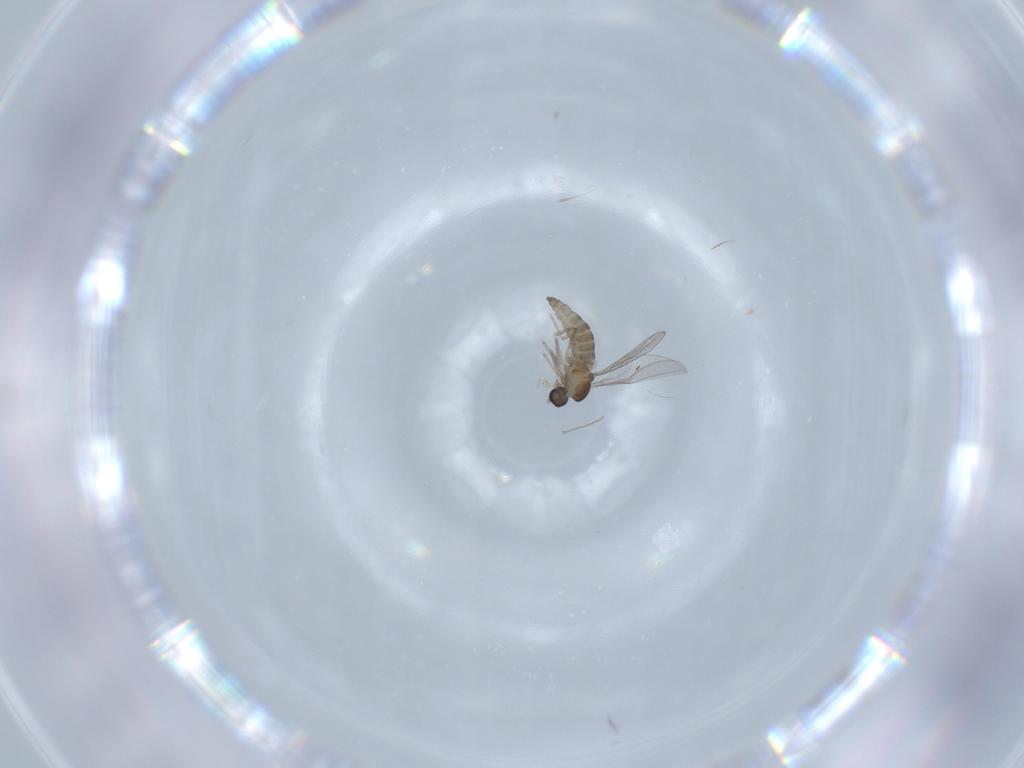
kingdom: Animalia
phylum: Arthropoda
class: Insecta
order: Diptera
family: Cecidomyiidae
